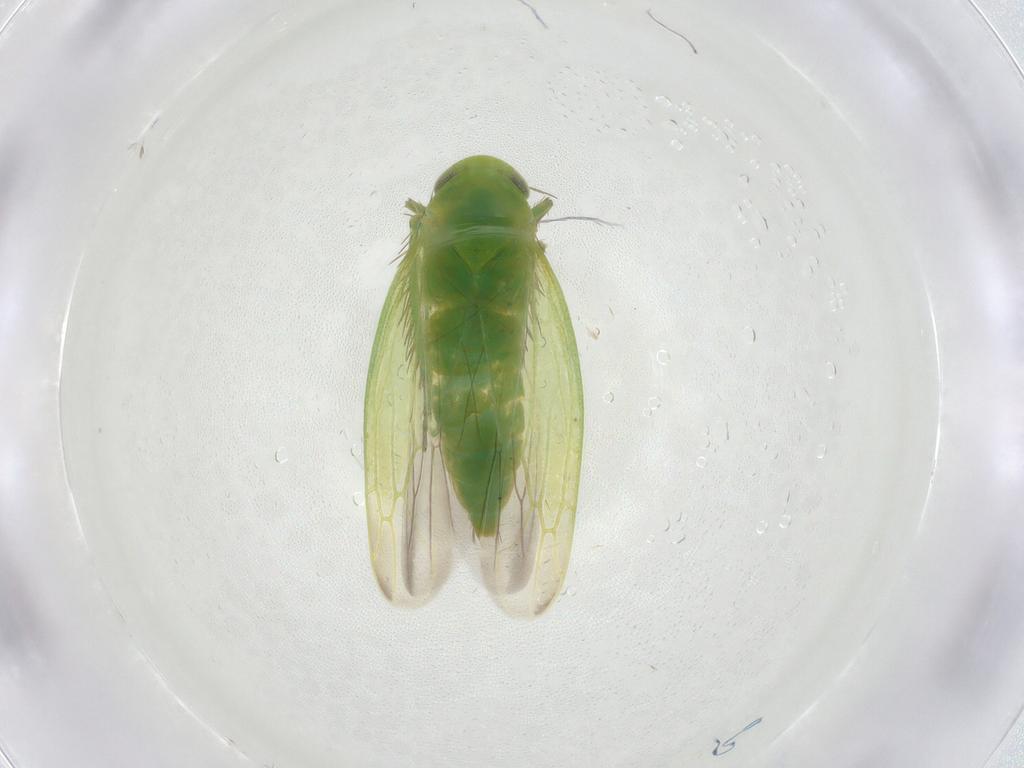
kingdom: Animalia
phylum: Arthropoda
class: Insecta
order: Hemiptera
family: Cicadellidae
